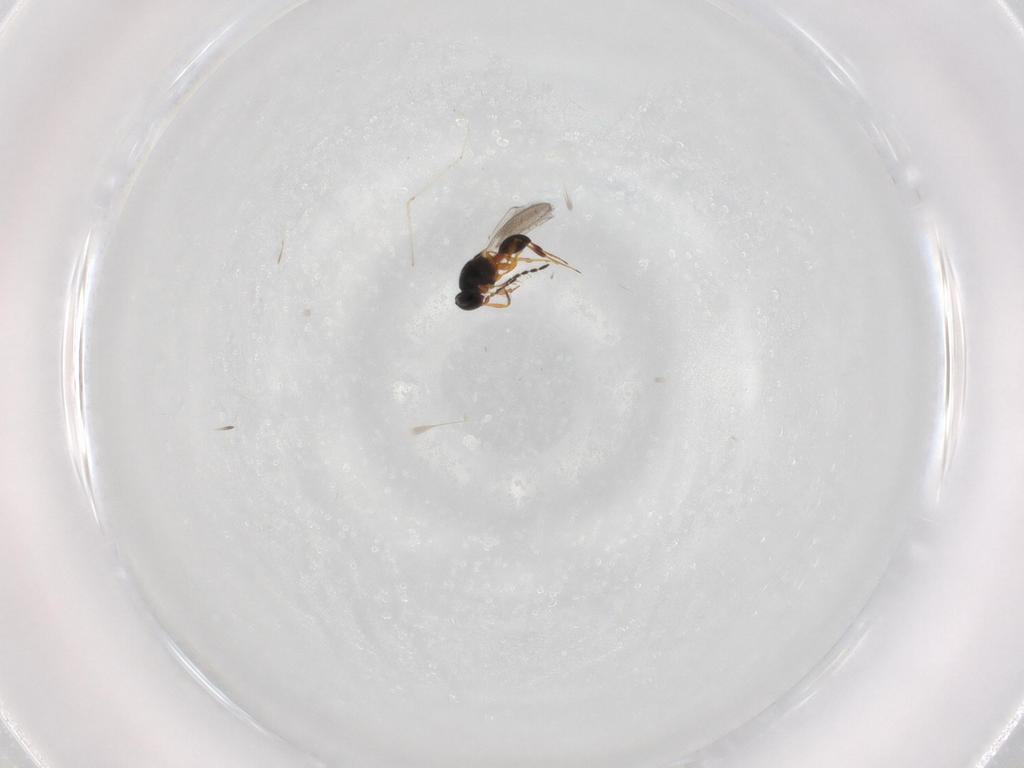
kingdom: Animalia
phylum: Arthropoda
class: Insecta
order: Hymenoptera
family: Platygastridae
